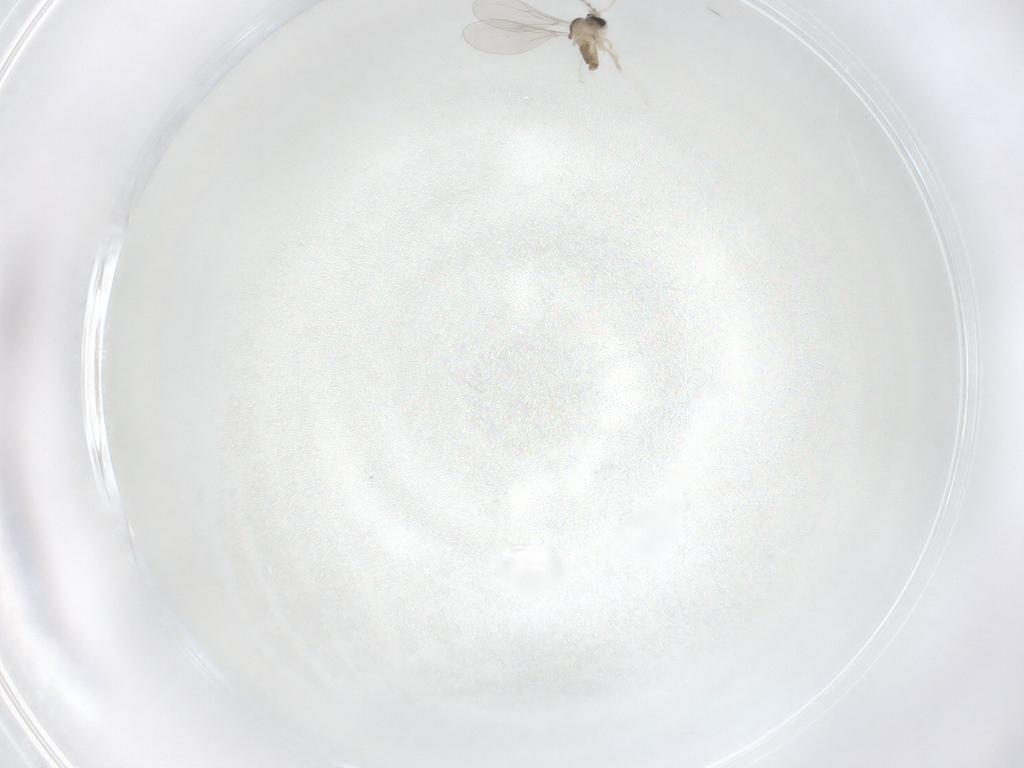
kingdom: Animalia
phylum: Arthropoda
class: Insecta
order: Diptera
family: Cecidomyiidae
